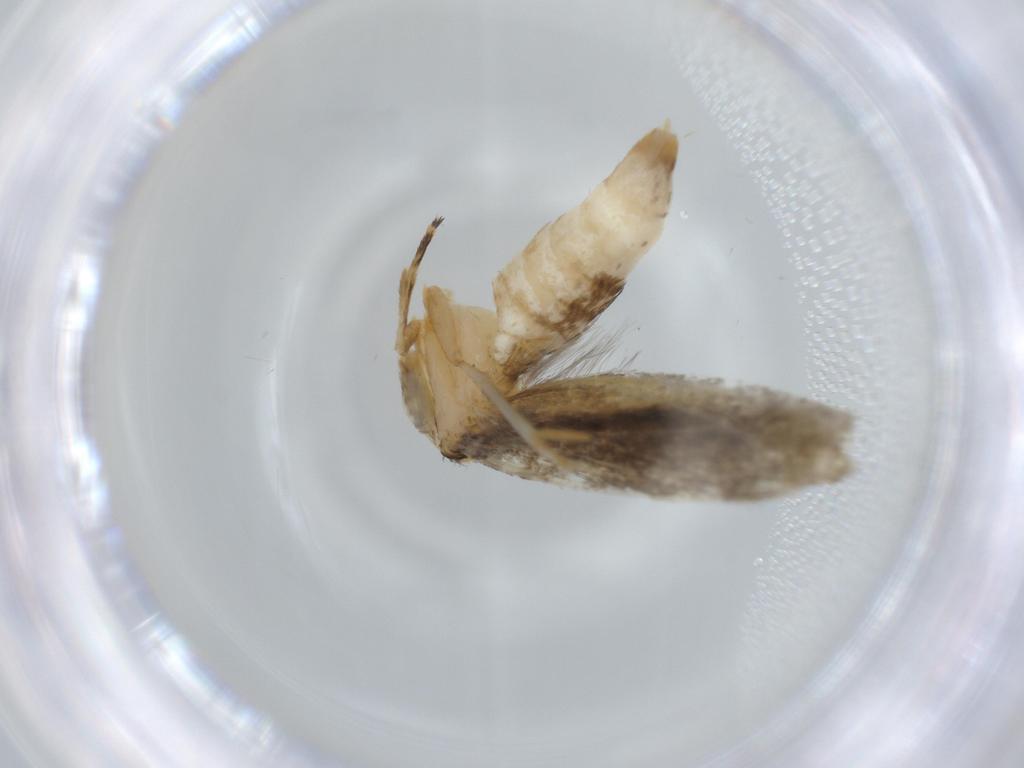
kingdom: Animalia
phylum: Arthropoda
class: Insecta
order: Lepidoptera
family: Tineidae
